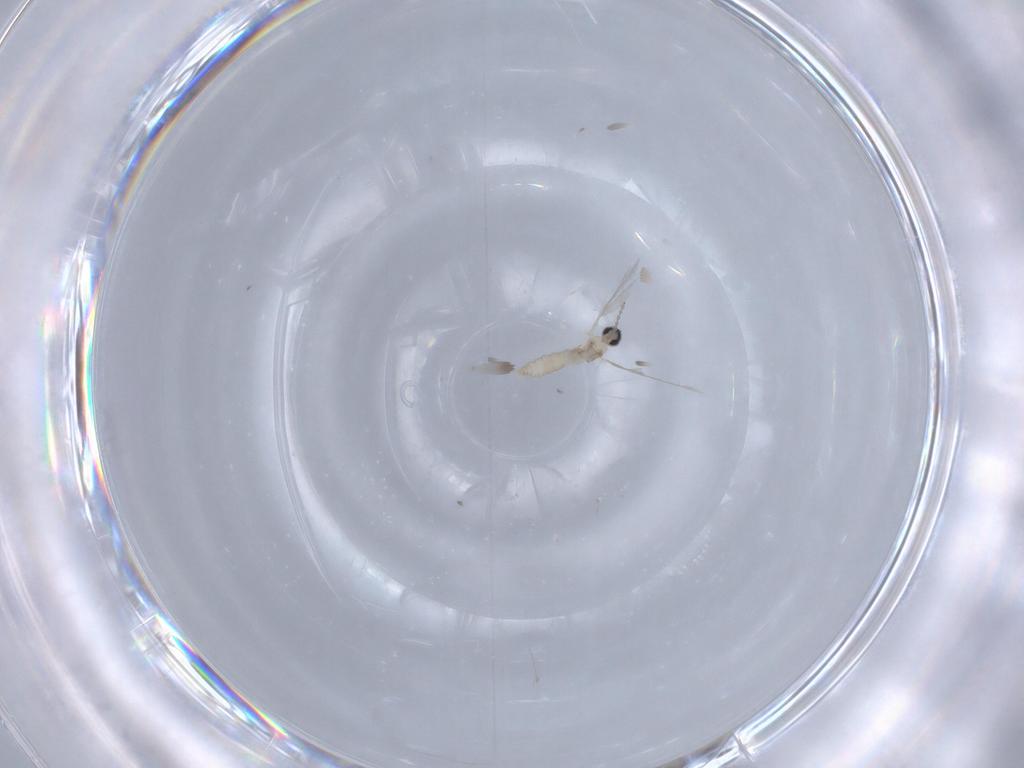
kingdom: Animalia
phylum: Arthropoda
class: Insecta
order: Diptera
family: Cecidomyiidae
